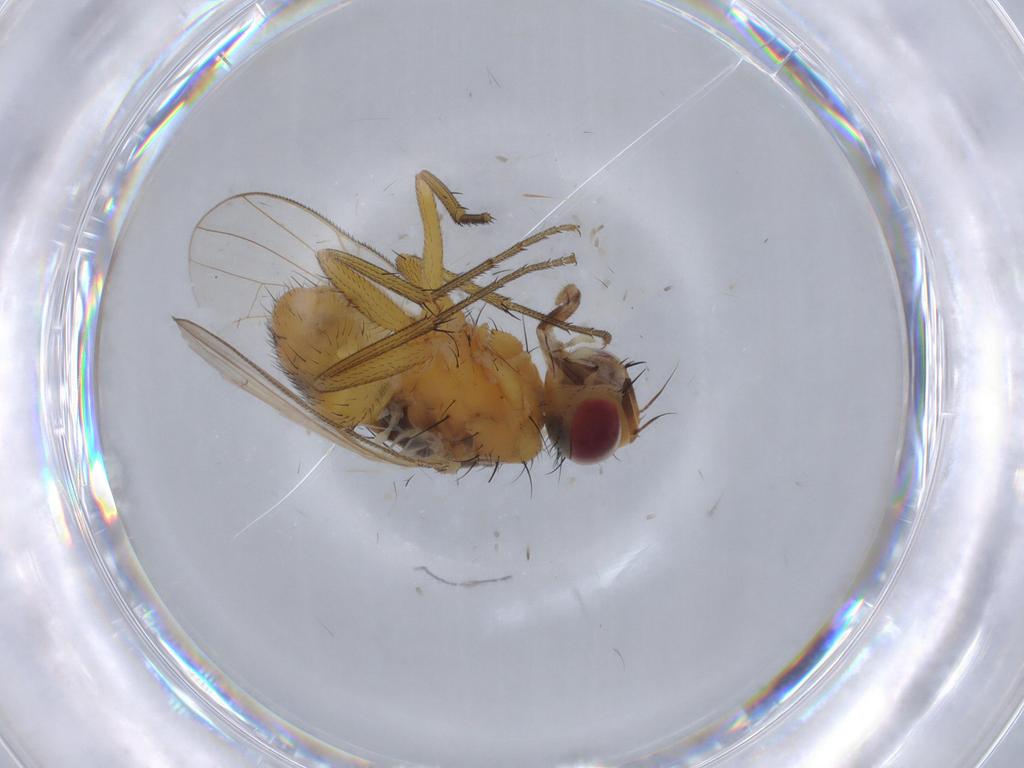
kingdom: Animalia
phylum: Arthropoda
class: Insecta
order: Diptera
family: Muscidae
